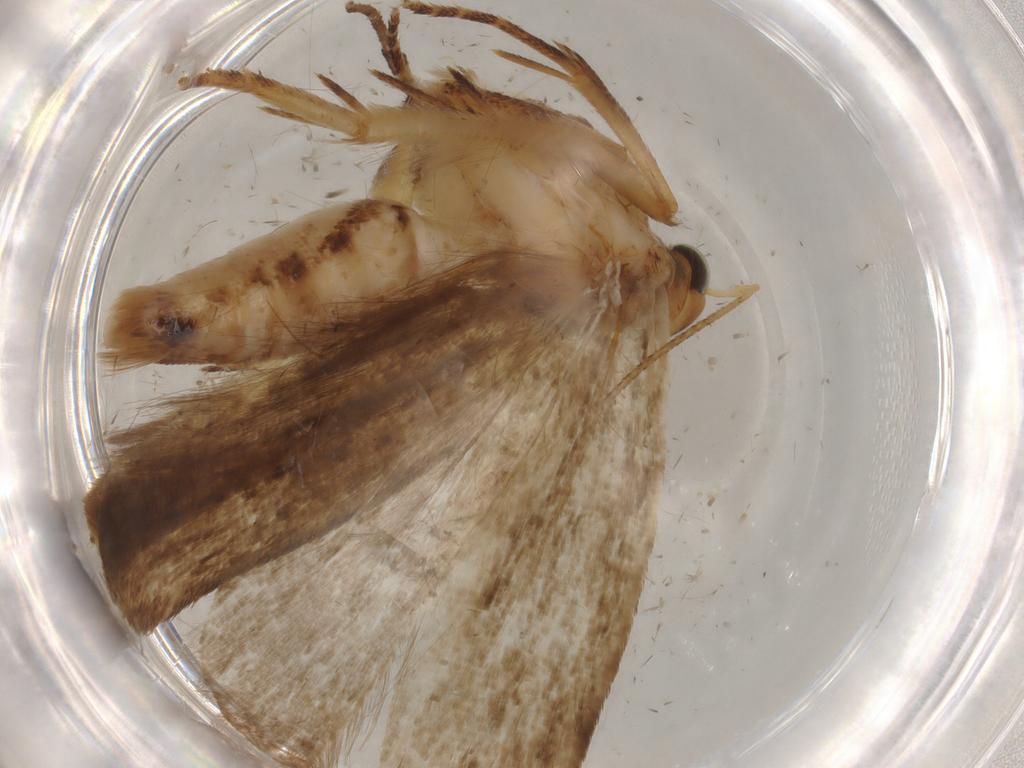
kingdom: Animalia
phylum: Arthropoda
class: Insecta
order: Lepidoptera
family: Gelechiidae
